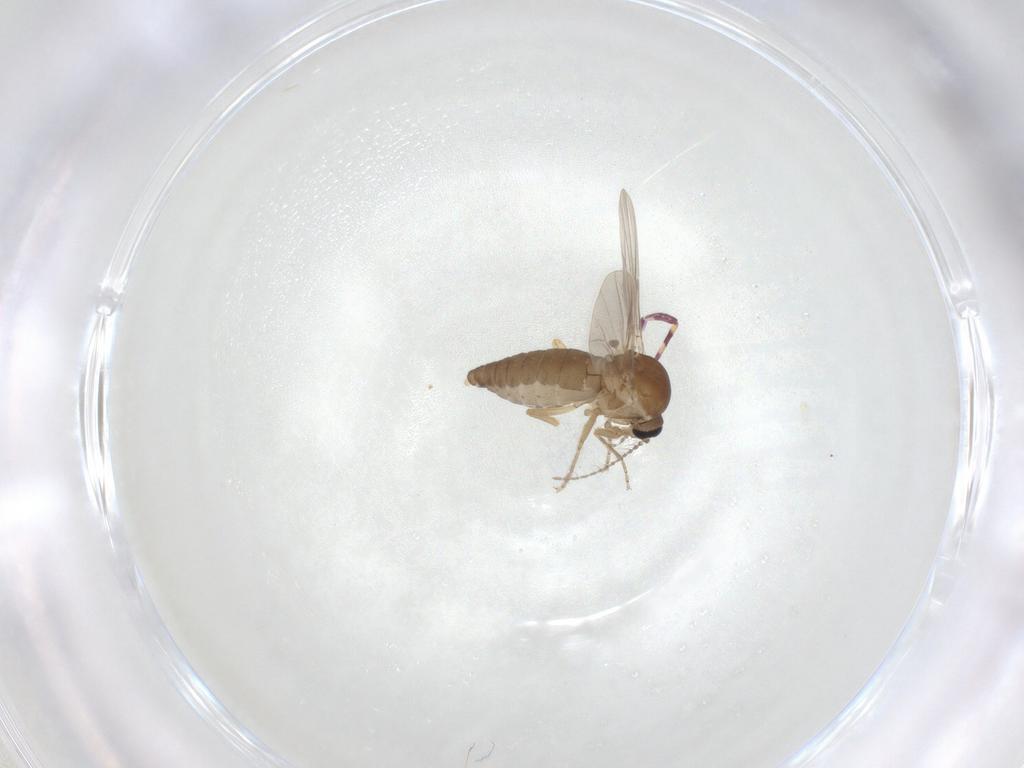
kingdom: Animalia
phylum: Arthropoda
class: Insecta
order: Diptera
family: Ceratopogonidae
